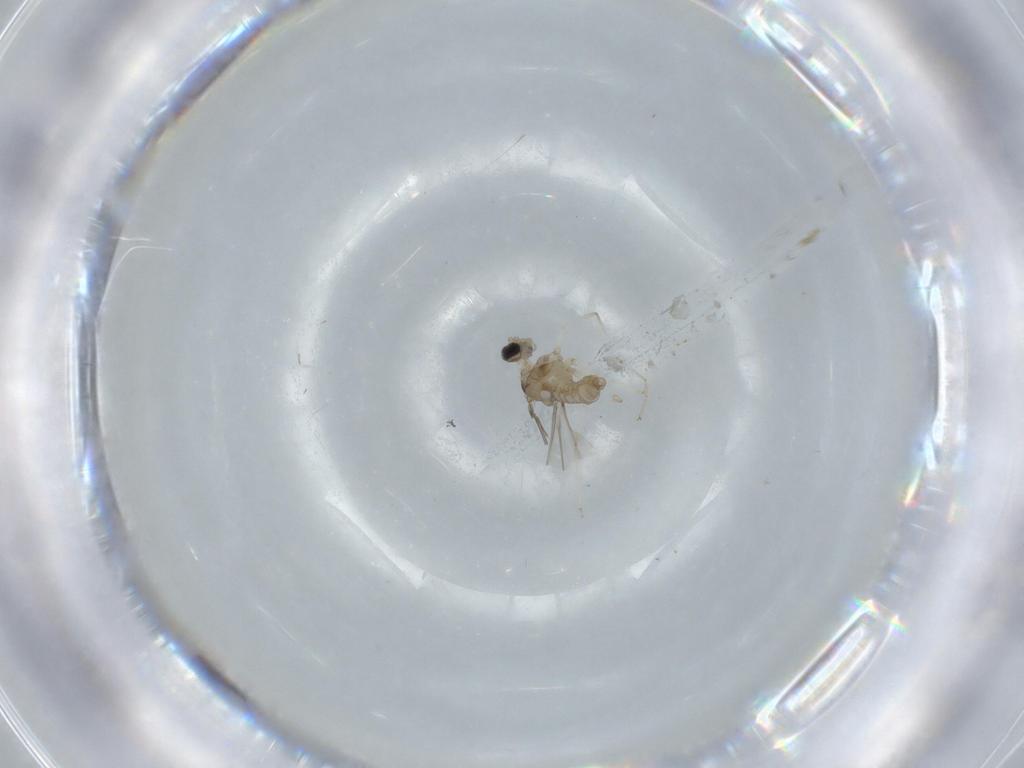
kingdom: Animalia
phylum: Arthropoda
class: Insecta
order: Diptera
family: Cecidomyiidae
